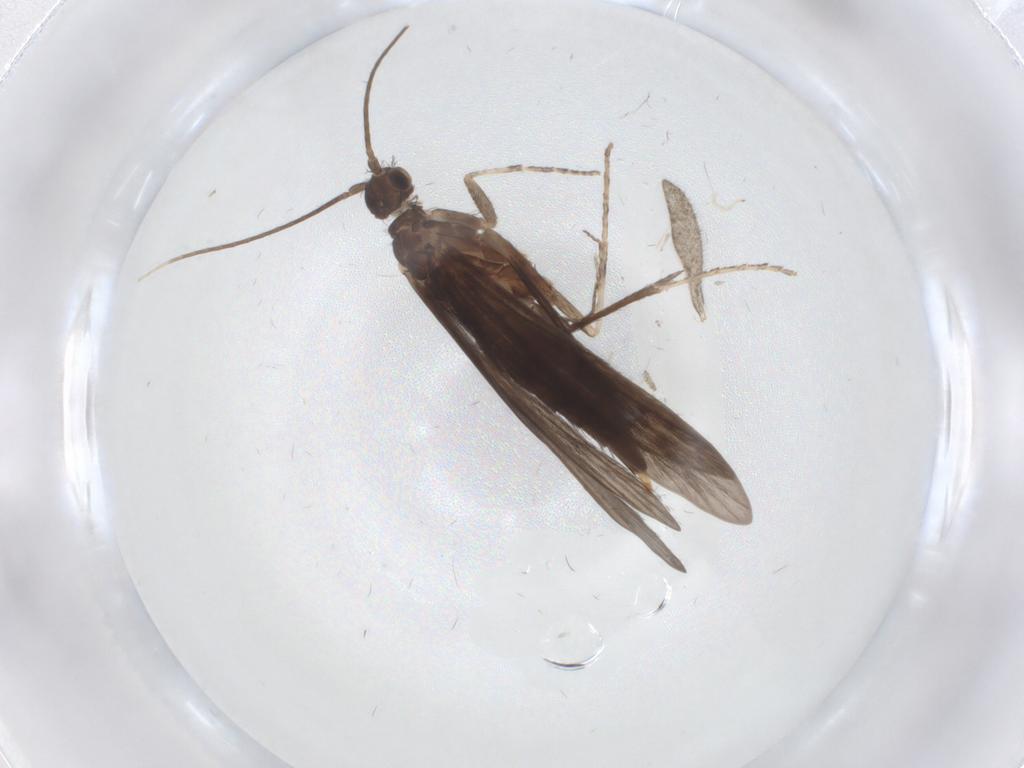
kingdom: Animalia
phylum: Arthropoda
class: Insecta
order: Trichoptera
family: Xiphocentronidae
